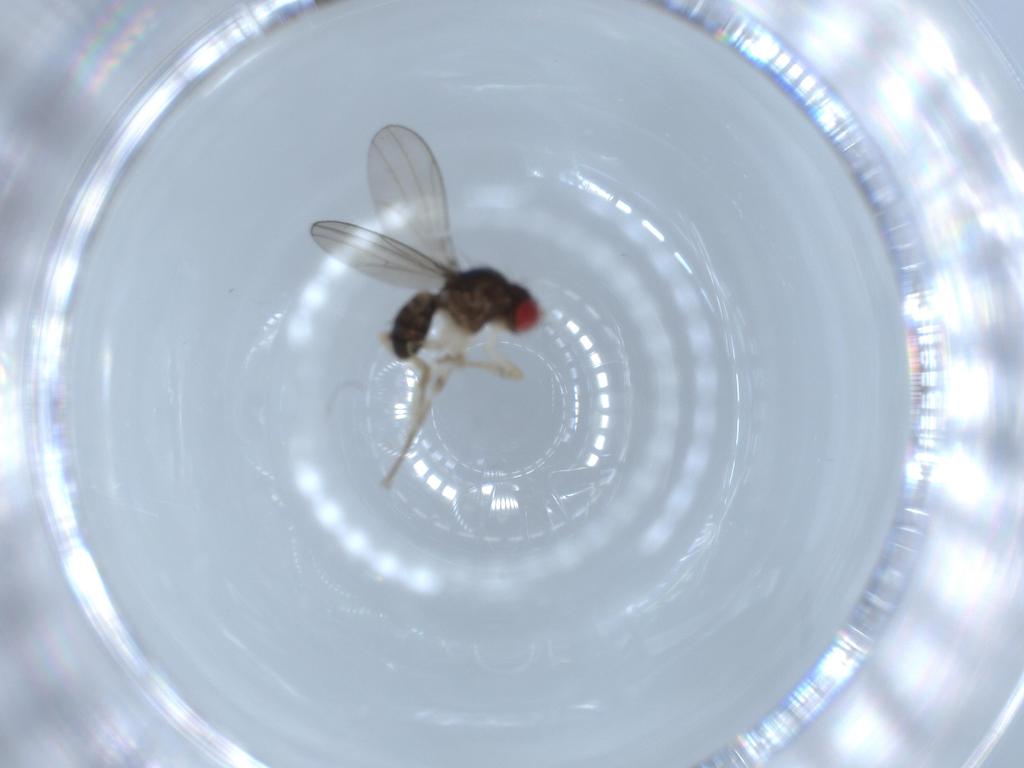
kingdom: Animalia
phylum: Arthropoda
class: Insecta
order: Diptera
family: Drosophilidae
